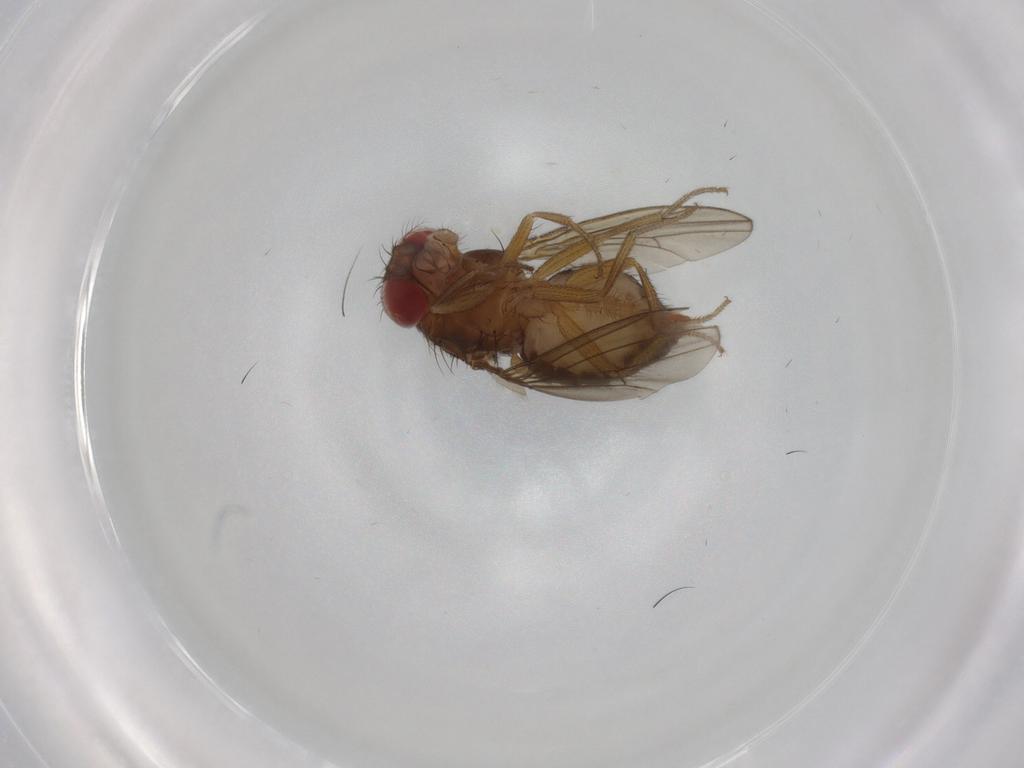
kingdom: Animalia
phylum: Arthropoda
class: Insecta
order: Diptera
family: Drosophilidae
